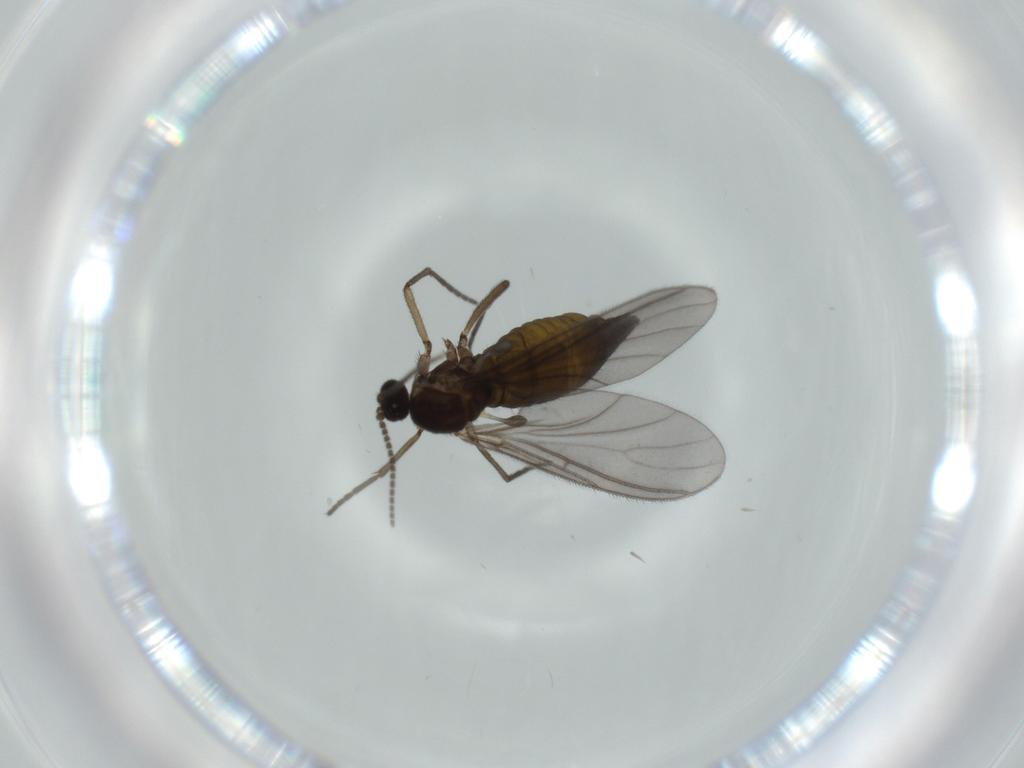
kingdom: Animalia
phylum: Arthropoda
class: Insecta
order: Diptera
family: Sciaridae
